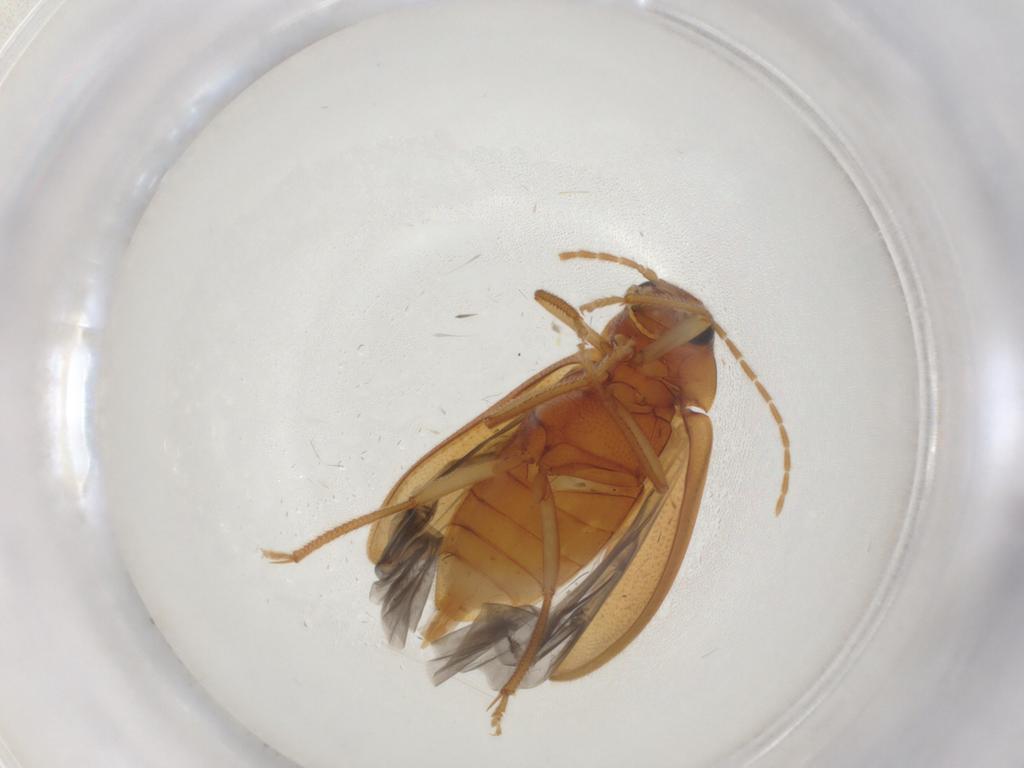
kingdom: Animalia
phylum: Arthropoda
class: Insecta
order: Coleoptera
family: Ptilodactylidae
